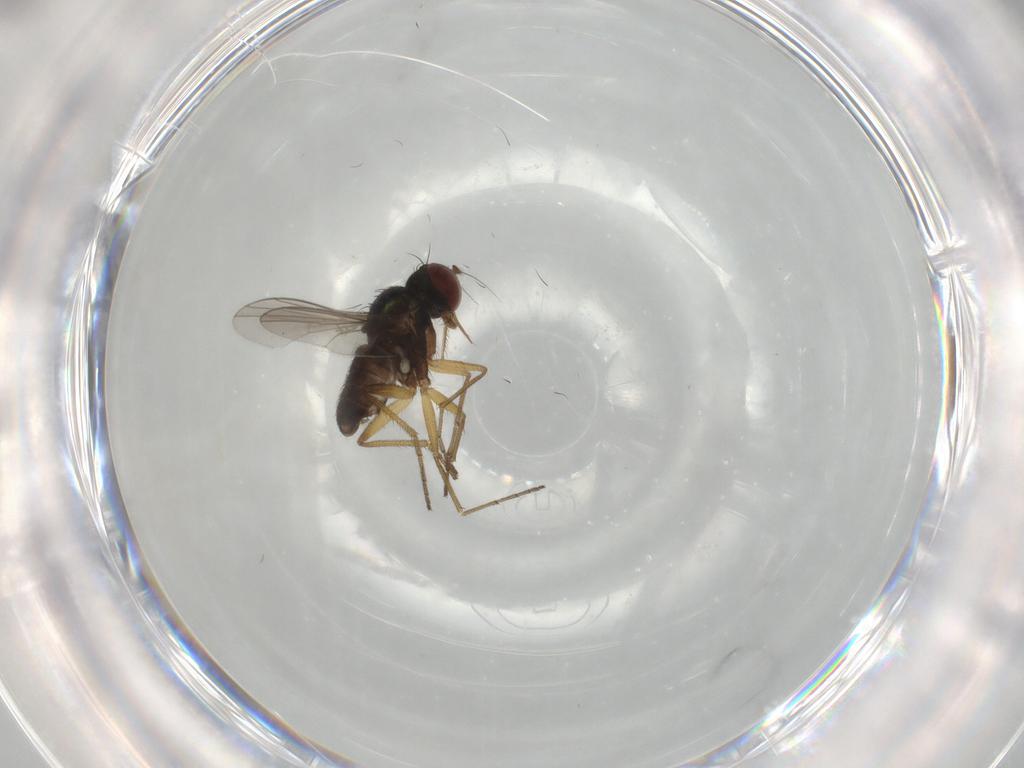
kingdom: Animalia
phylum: Arthropoda
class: Insecta
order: Diptera
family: Dolichopodidae
